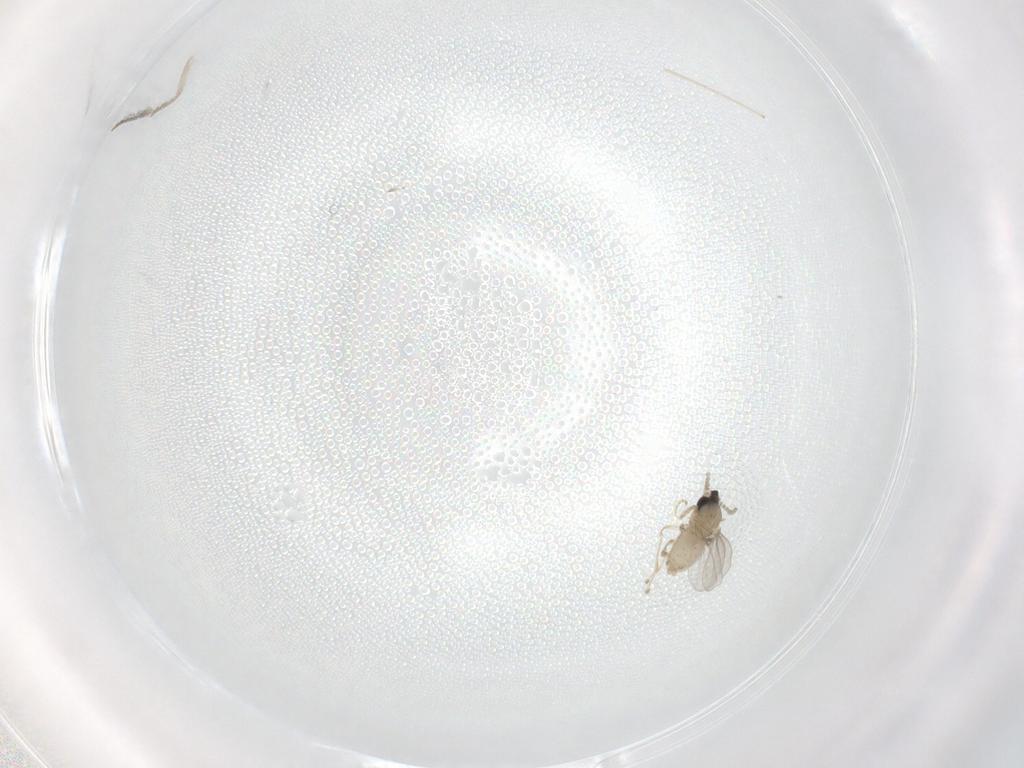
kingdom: Animalia
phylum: Arthropoda
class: Insecta
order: Diptera
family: Cecidomyiidae
